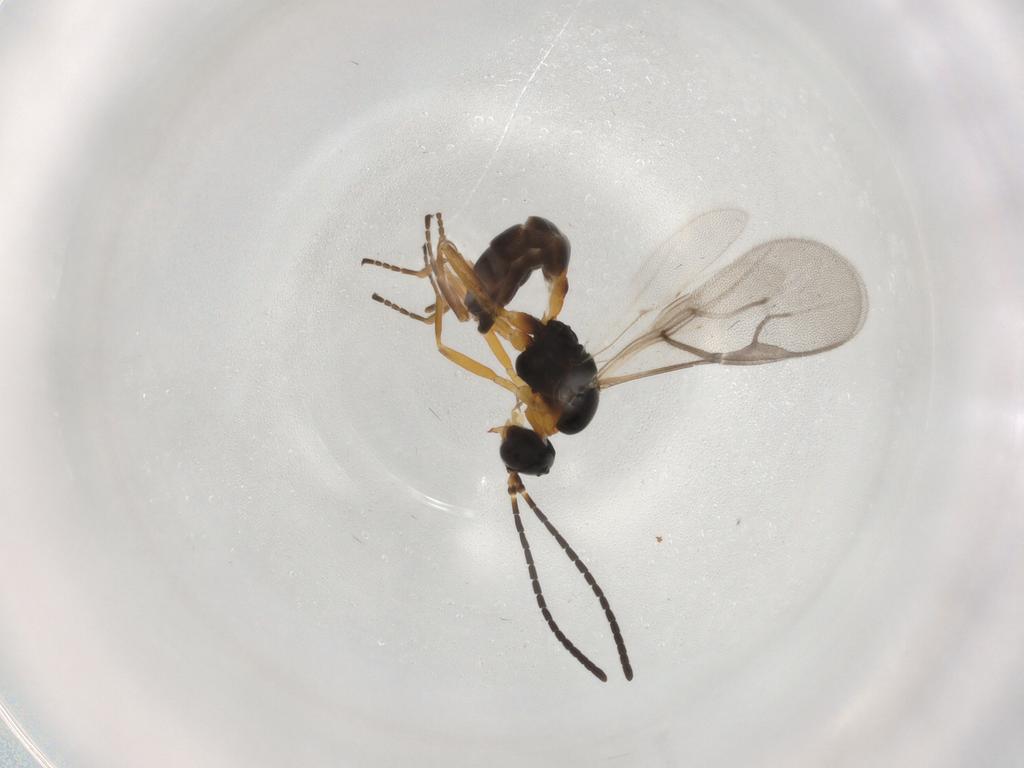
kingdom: Animalia
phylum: Arthropoda
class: Insecta
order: Hymenoptera
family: Braconidae
